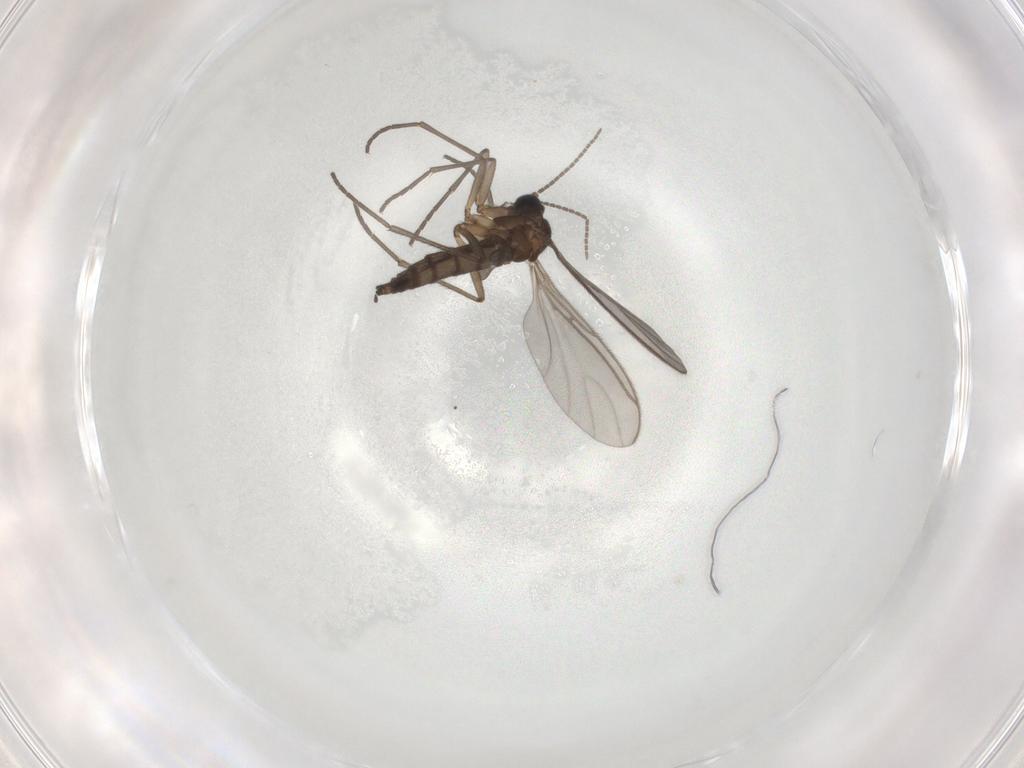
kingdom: Animalia
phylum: Arthropoda
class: Insecta
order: Diptera
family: Sciaridae
